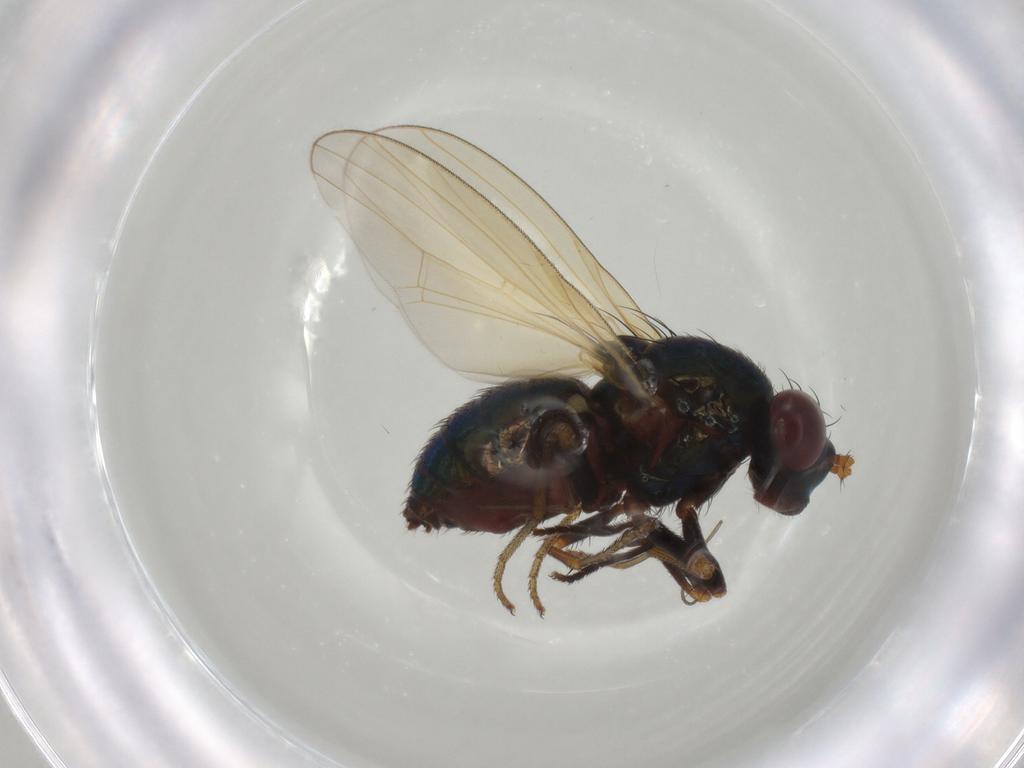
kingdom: Animalia
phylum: Arthropoda
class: Insecta
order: Diptera
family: Lauxaniidae
